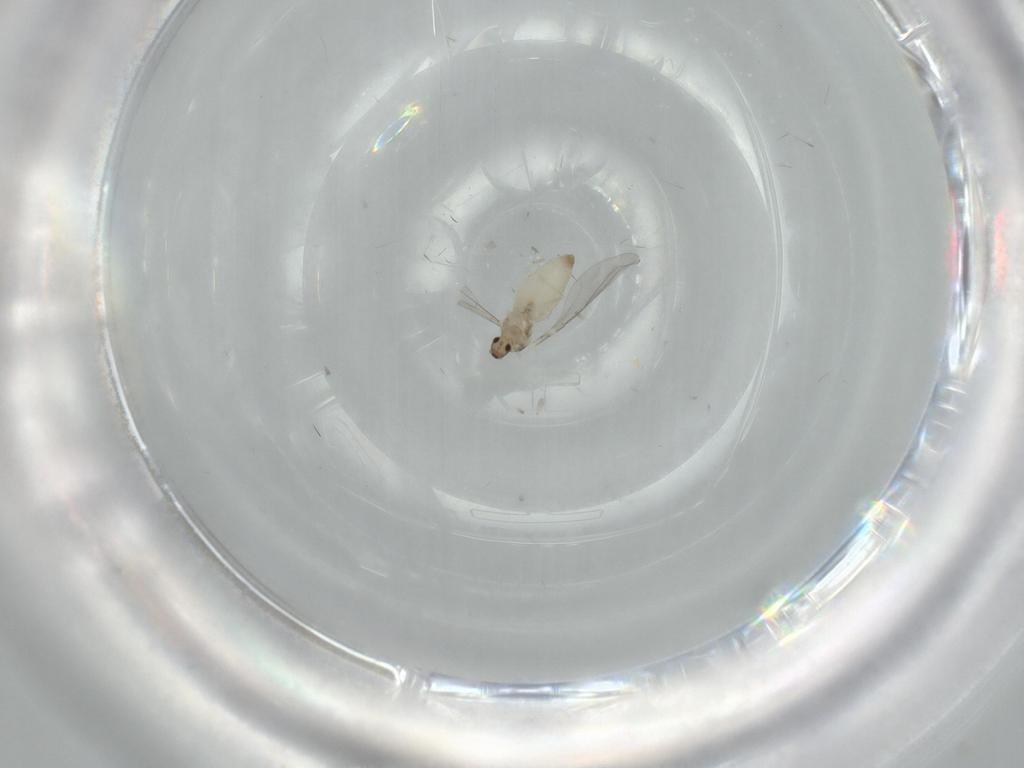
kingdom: Animalia
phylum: Arthropoda
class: Insecta
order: Diptera
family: Cecidomyiidae
